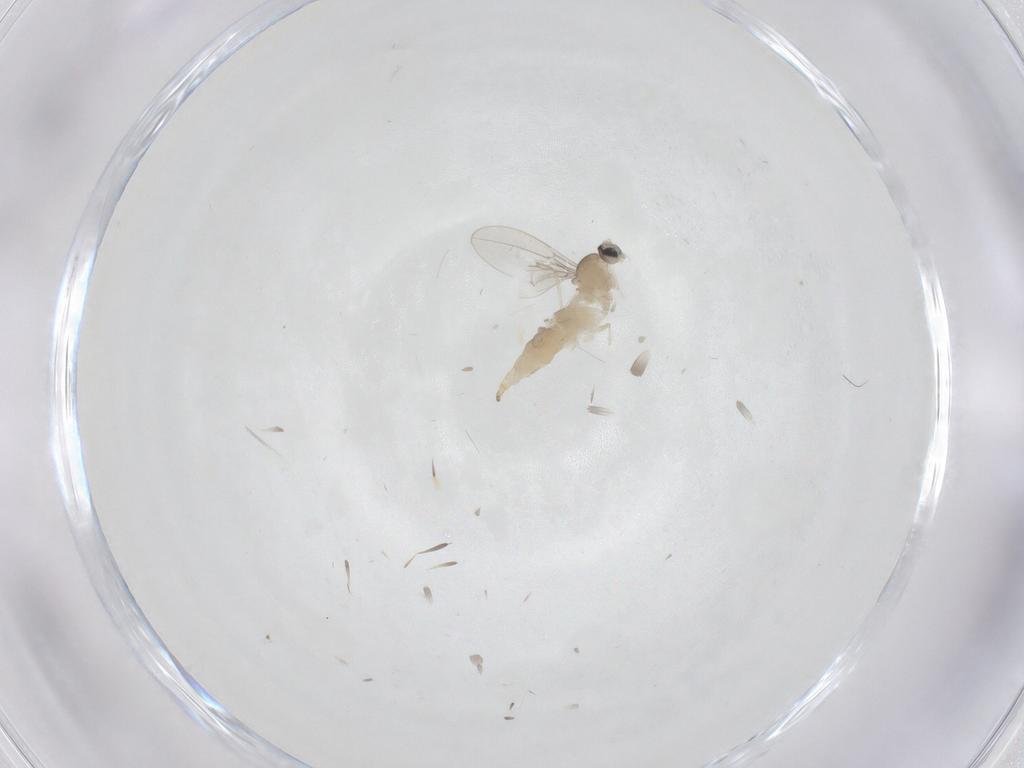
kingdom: Animalia
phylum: Arthropoda
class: Insecta
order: Diptera
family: Cecidomyiidae
